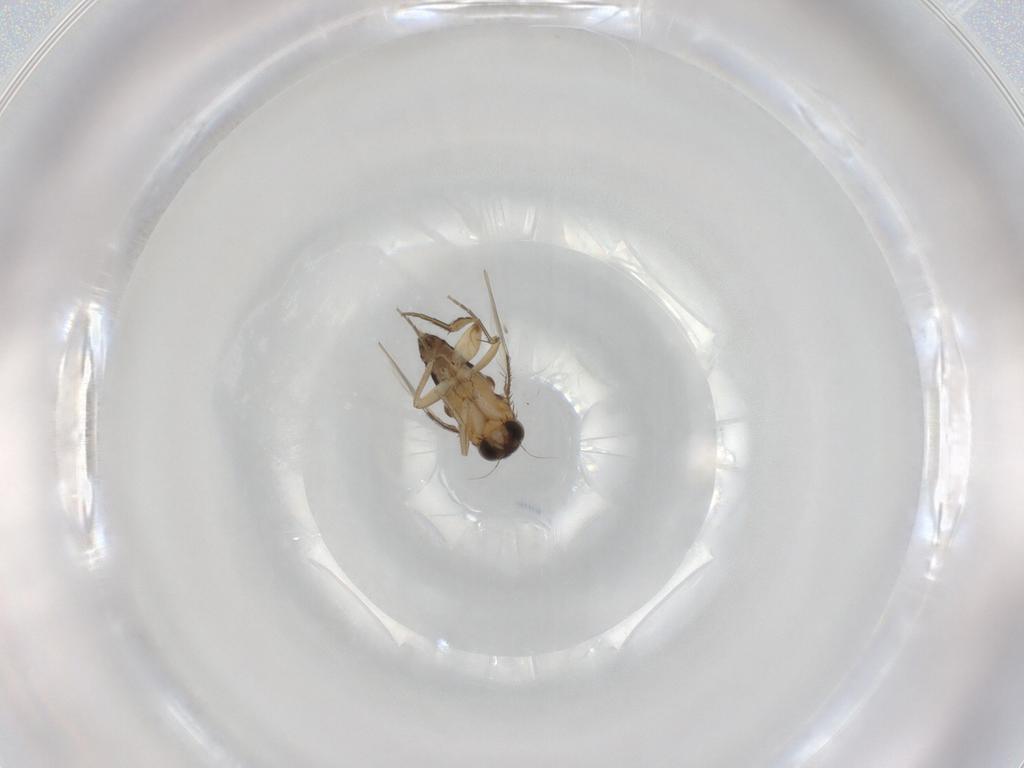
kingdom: Animalia
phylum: Arthropoda
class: Insecta
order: Diptera
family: Phoridae
